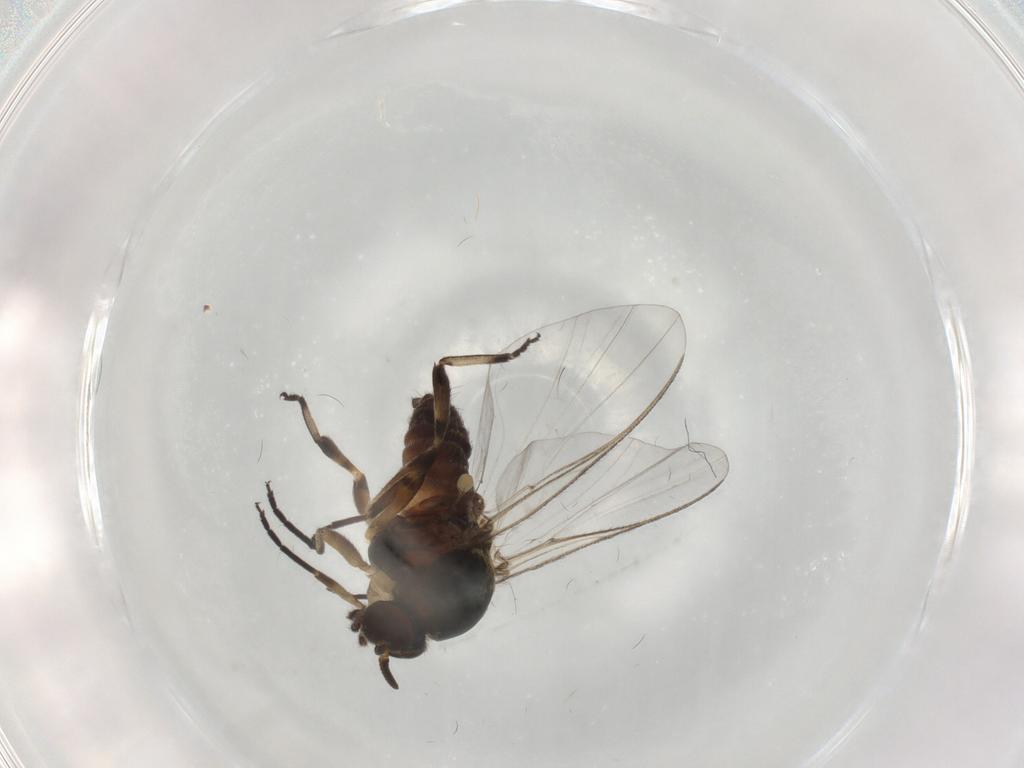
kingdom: Animalia
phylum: Arthropoda
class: Insecta
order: Diptera
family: Simuliidae
